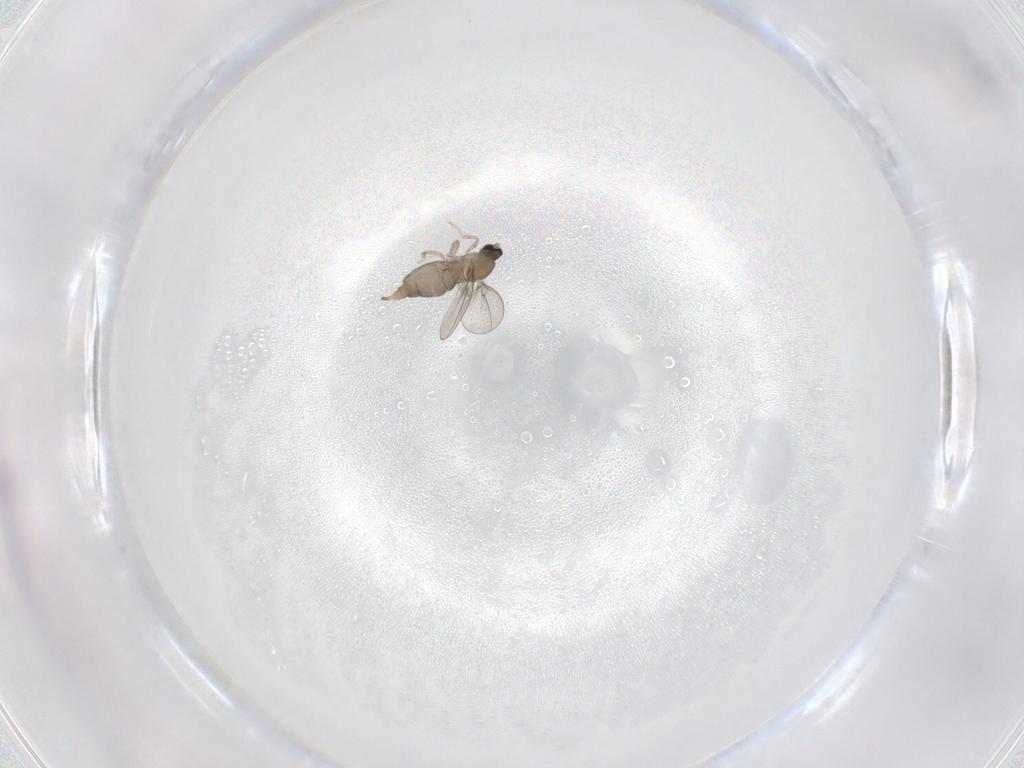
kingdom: Animalia
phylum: Arthropoda
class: Insecta
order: Diptera
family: Cecidomyiidae
